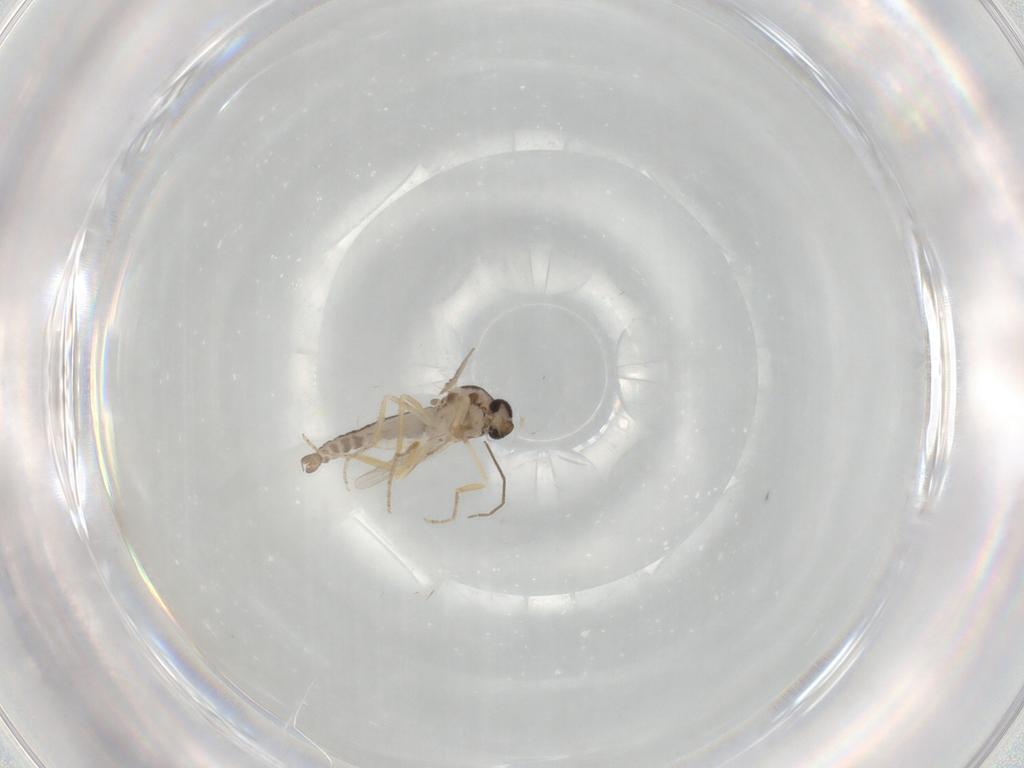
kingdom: Animalia
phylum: Arthropoda
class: Insecta
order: Diptera
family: Ceratopogonidae
